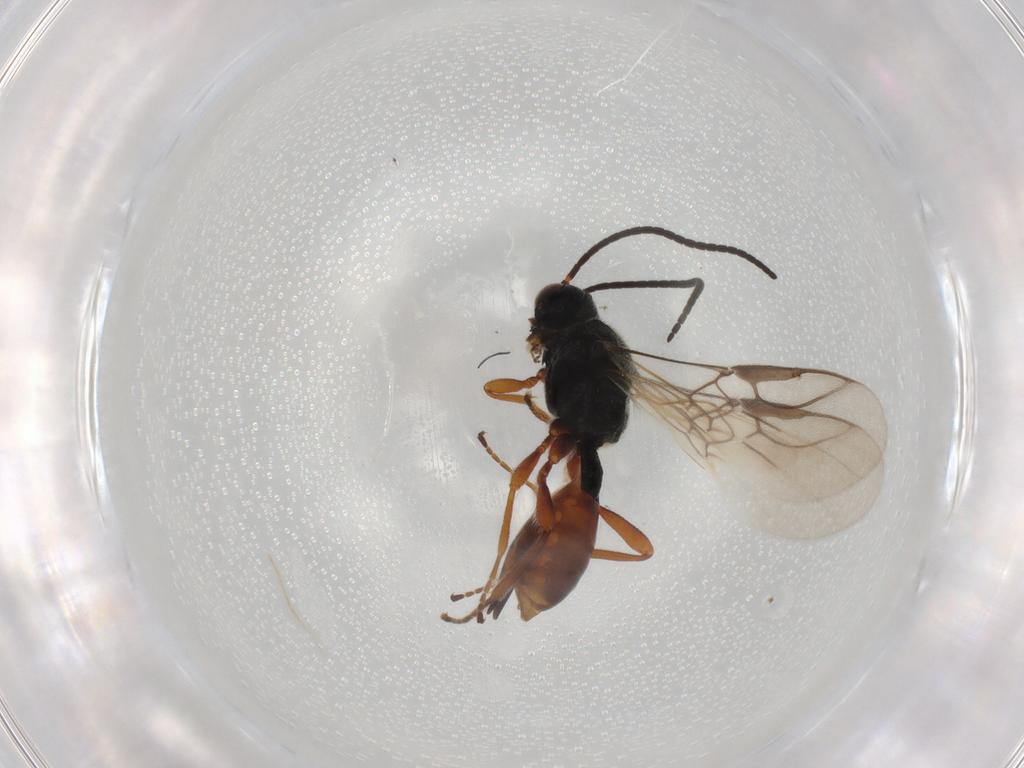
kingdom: Animalia
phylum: Arthropoda
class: Insecta
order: Hymenoptera
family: Braconidae
